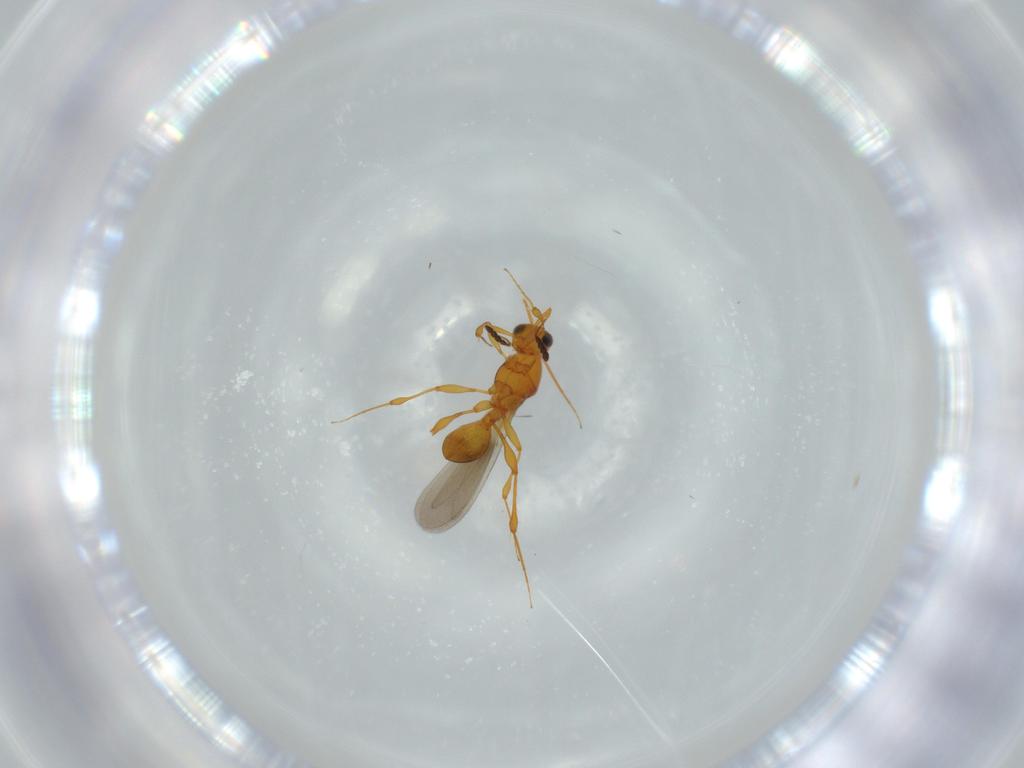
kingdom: Animalia
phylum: Arthropoda
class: Insecta
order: Hymenoptera
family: Platygastridae
